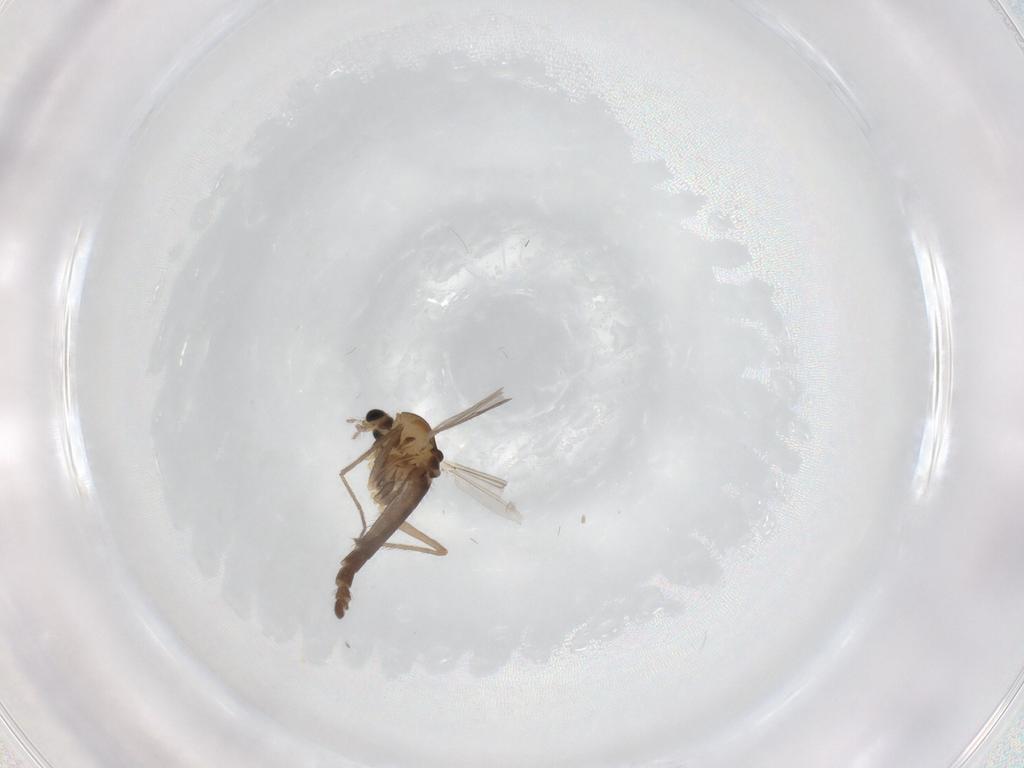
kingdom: Animalia
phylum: Arthropoda
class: Insecta
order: Diptera
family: Chironomidae
